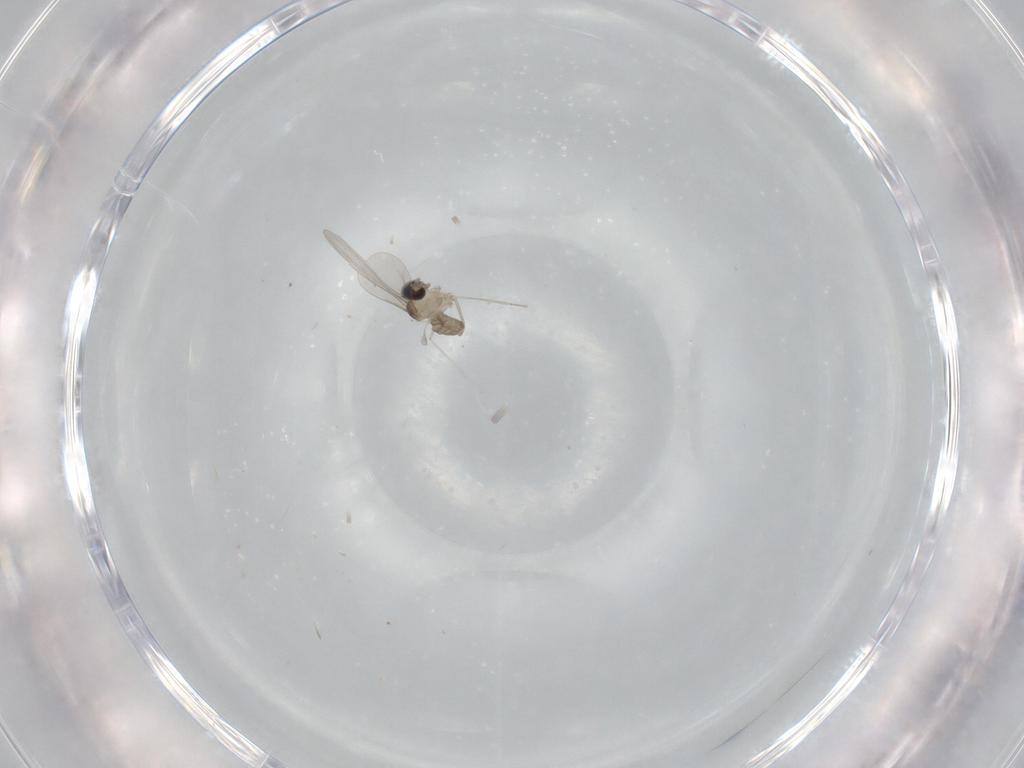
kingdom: Animalia
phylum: Arthropoda
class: Insecta
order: Diptera
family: Cecidomyiidae
